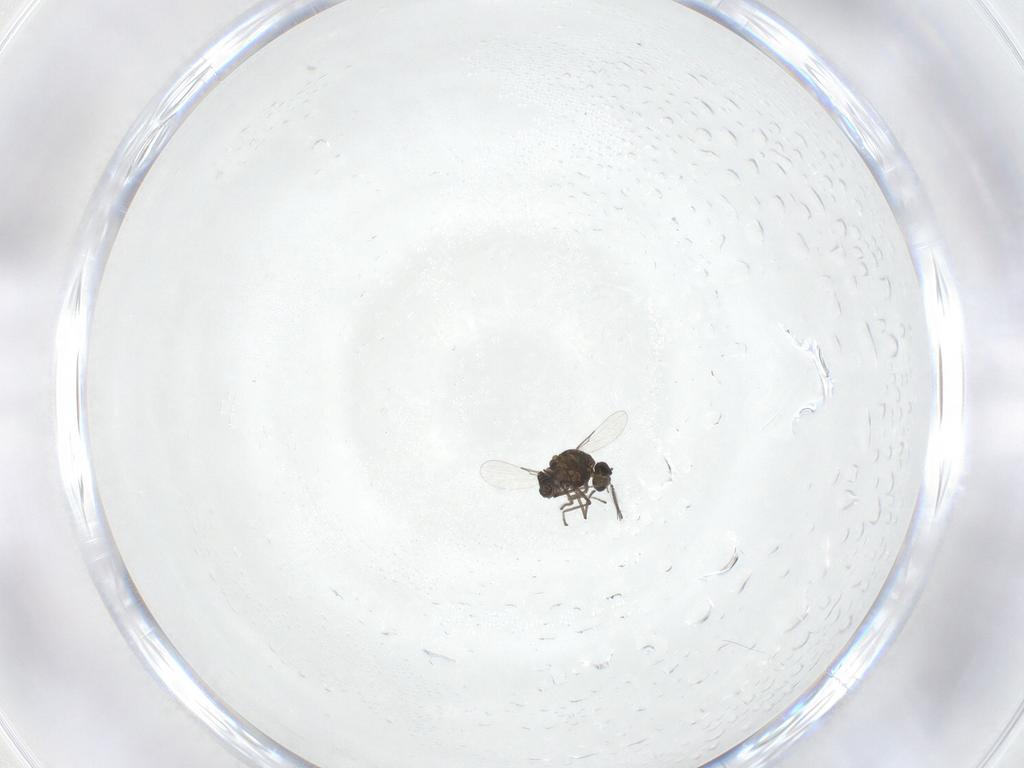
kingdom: Animalia
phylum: Arthropoda
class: Insecta
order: Diptera
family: Ceratopogonidae
